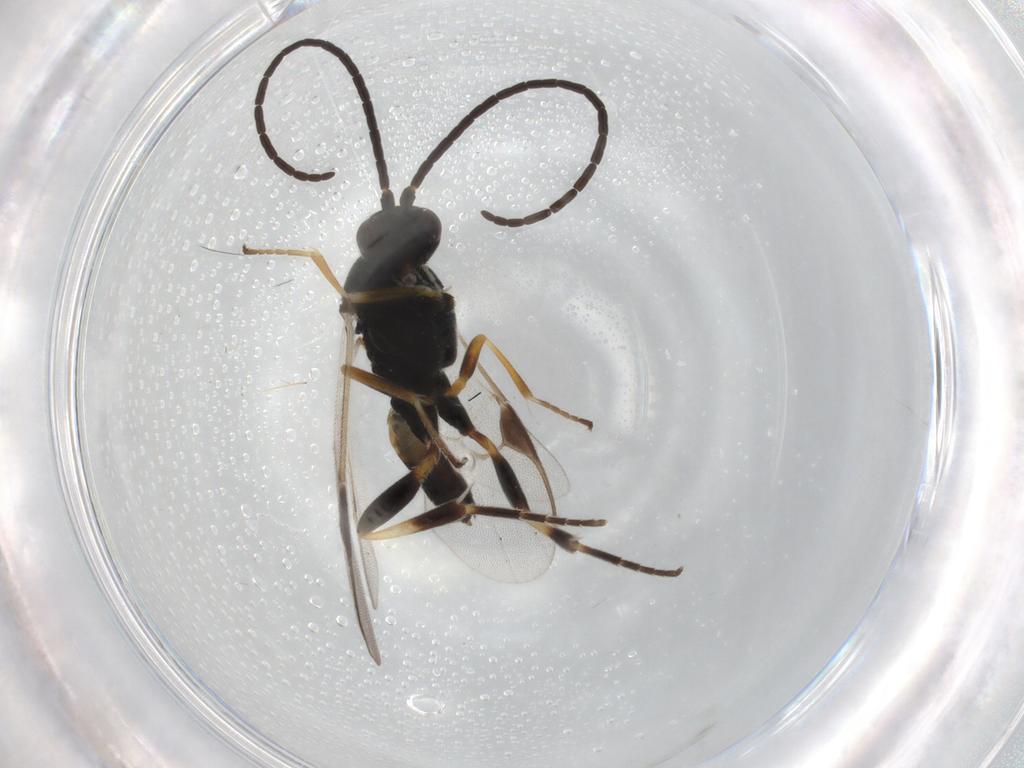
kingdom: Animalia
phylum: Arthropoda
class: Insecta
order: Hymenoptera
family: Braconidae
